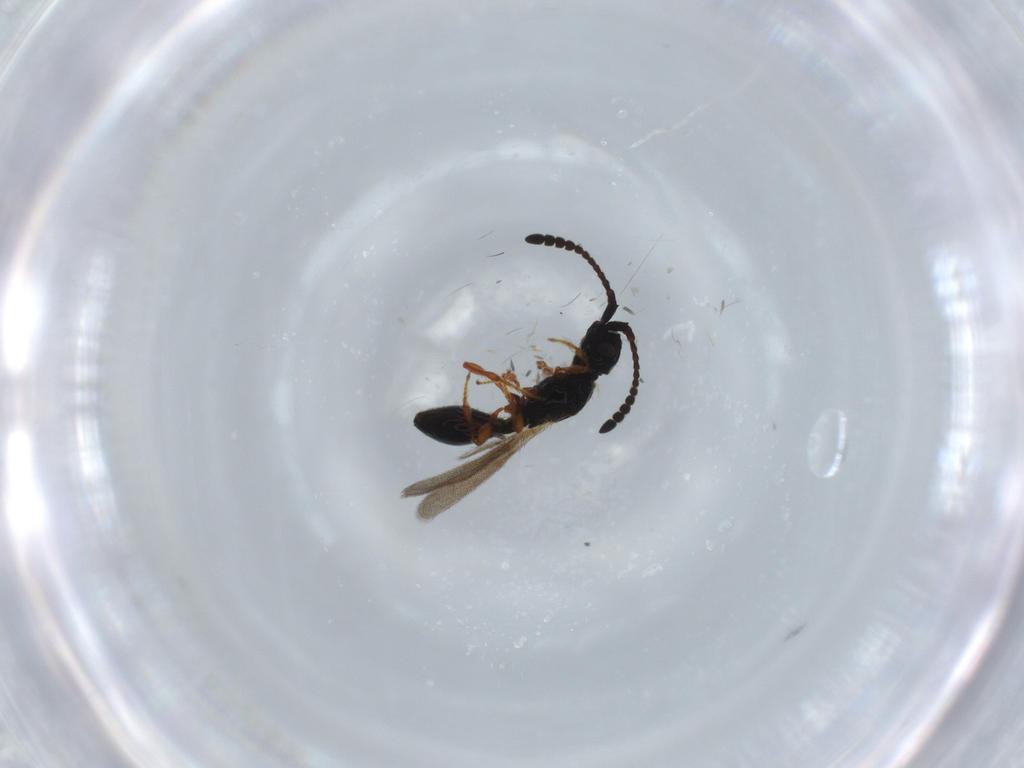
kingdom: Animalia
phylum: Arthropoda
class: Insecta
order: Hymenoptera
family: Diapriidae
